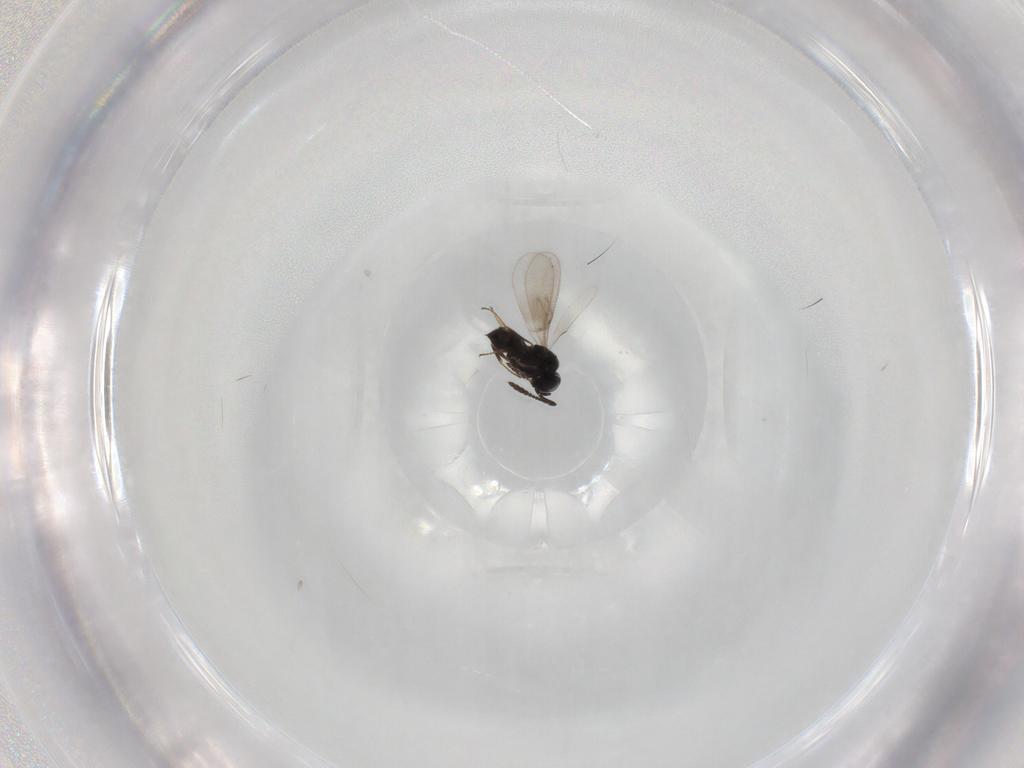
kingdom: Animalia
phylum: Arthropoda
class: Insecta
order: Hymenoptera
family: Scelionidae
